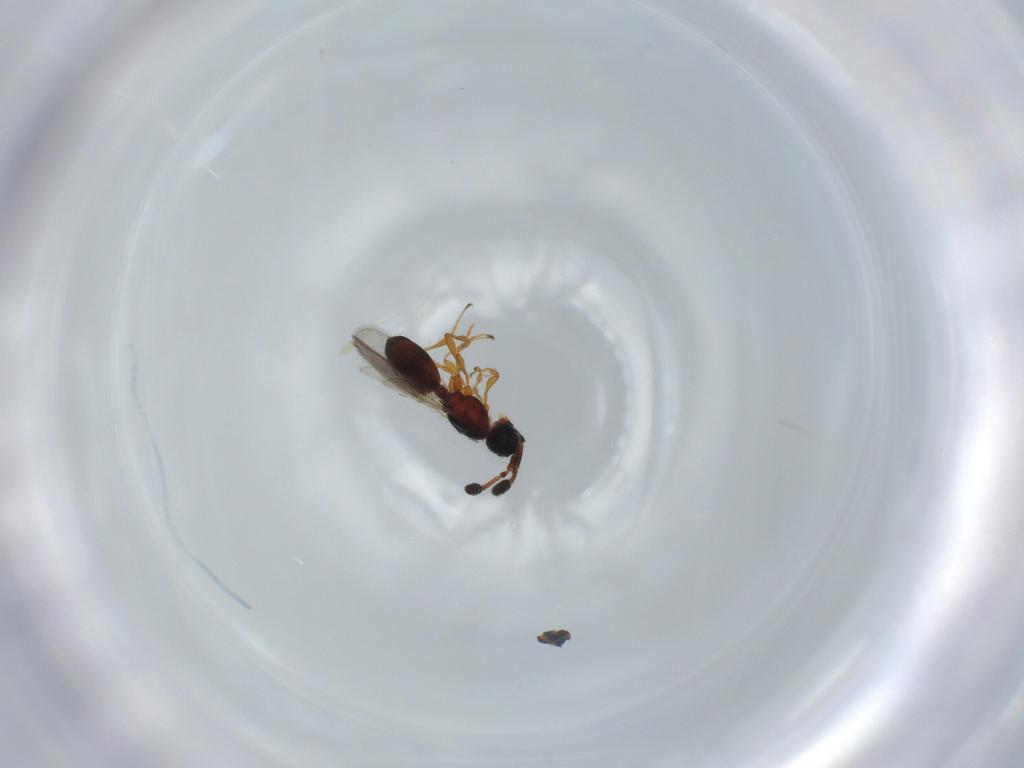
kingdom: Animalia
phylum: Arthropoda
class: Insecta
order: Hymenoptera
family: Diapriidae
